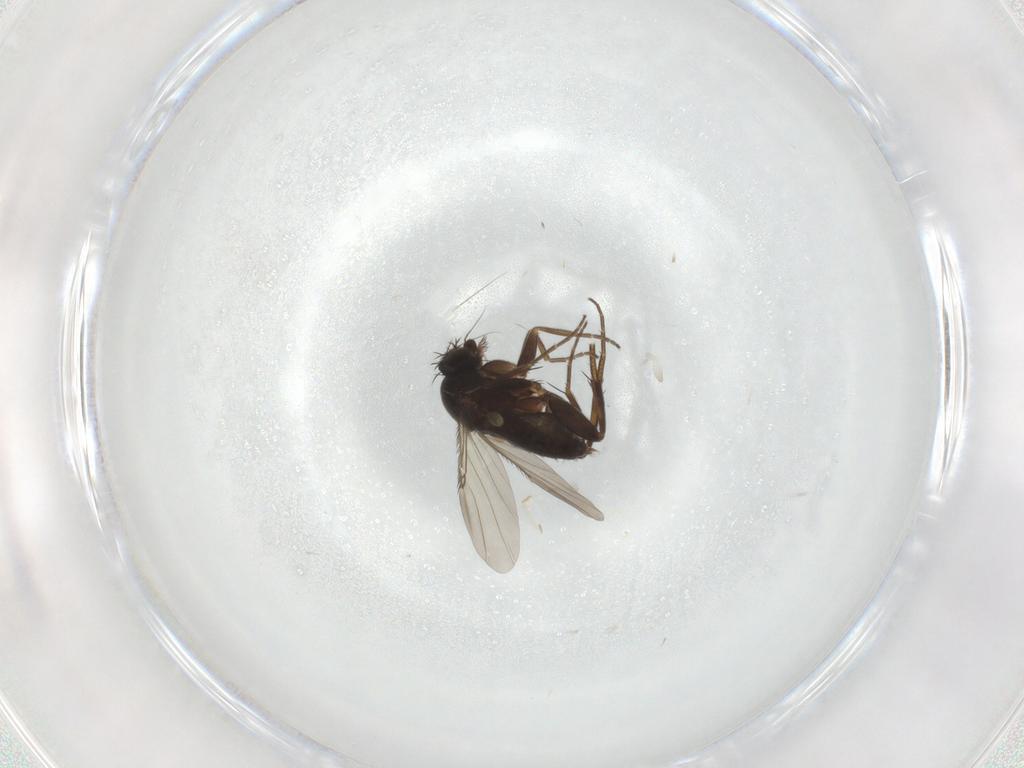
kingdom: Animalia
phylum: Arthropoda
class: Insecta
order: Diptera
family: Phoridae
